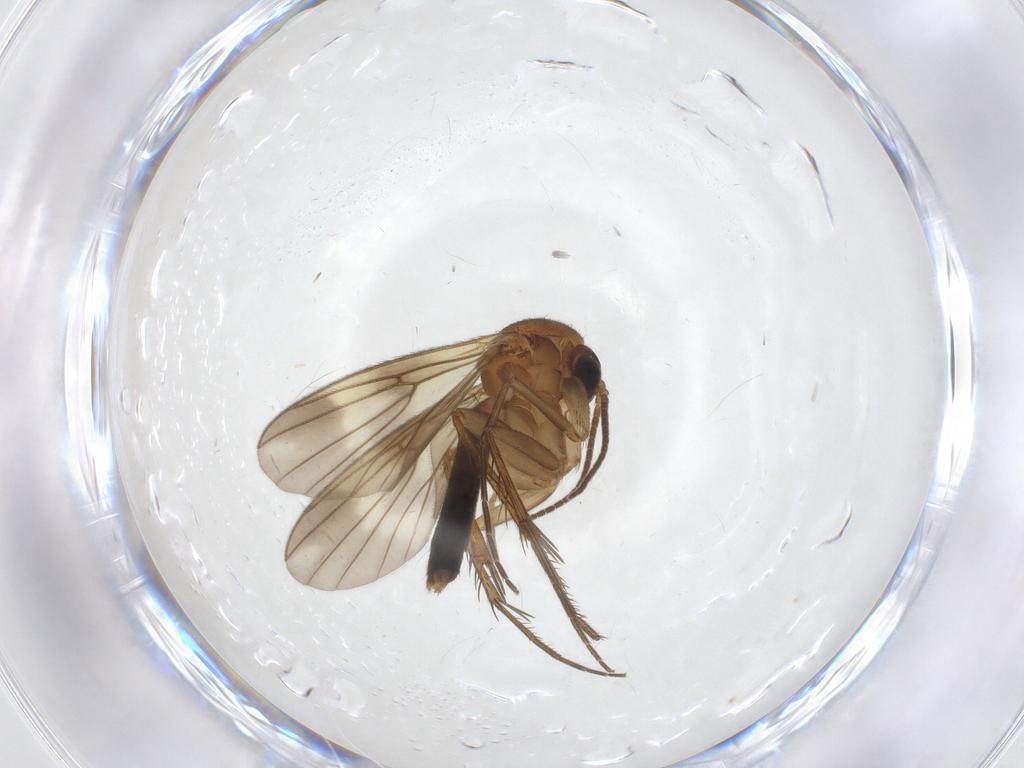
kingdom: Animalia
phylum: Arthropoda
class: Insecta
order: Diptera
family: Mycetophilidae
